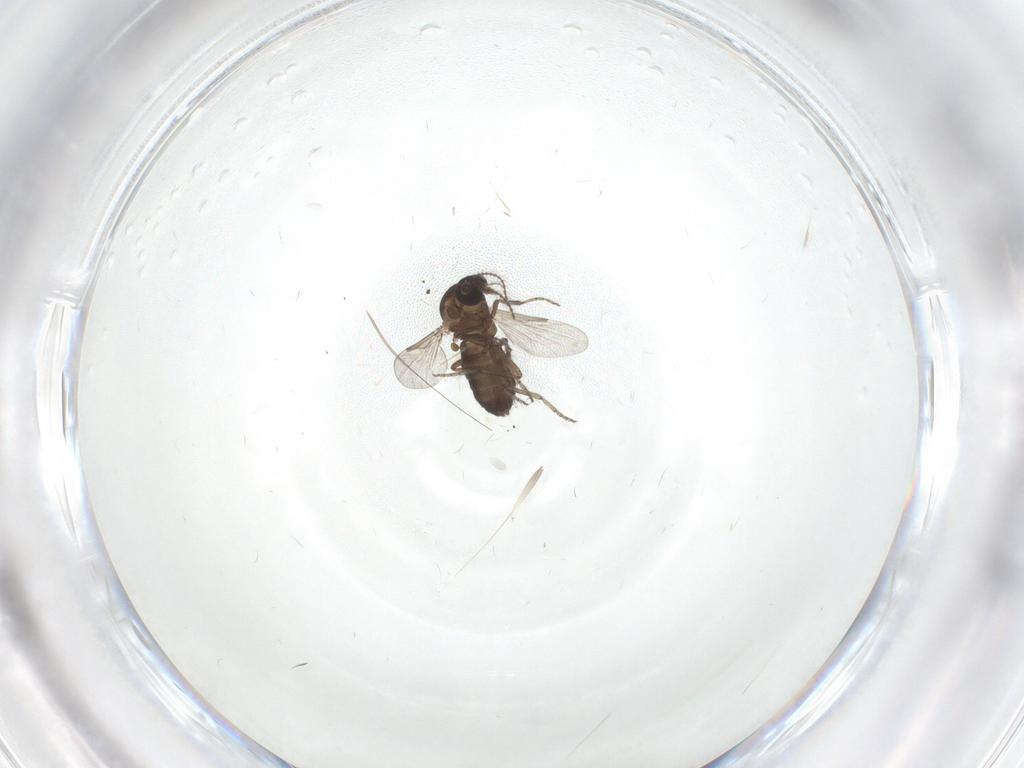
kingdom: Animalia
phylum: Arthropoda
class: Insecta
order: Diptera
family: Ceratopogonidae
